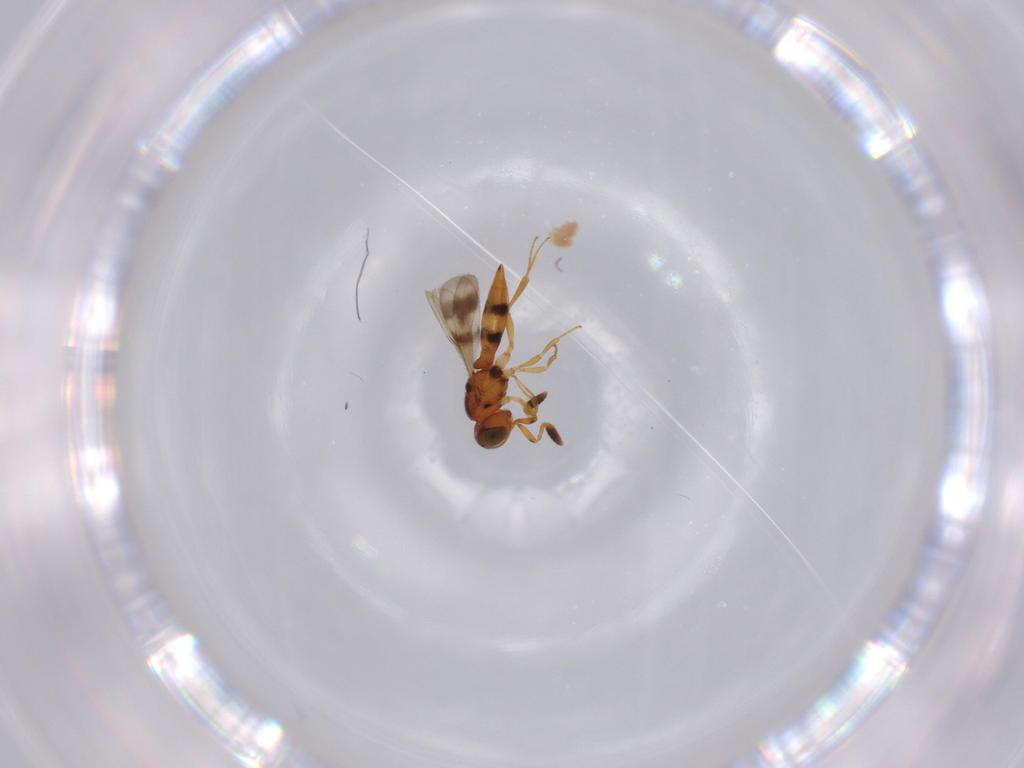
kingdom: Animalia
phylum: Arthropoda
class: Insecta
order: Hymenoptera
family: Scelionidae
